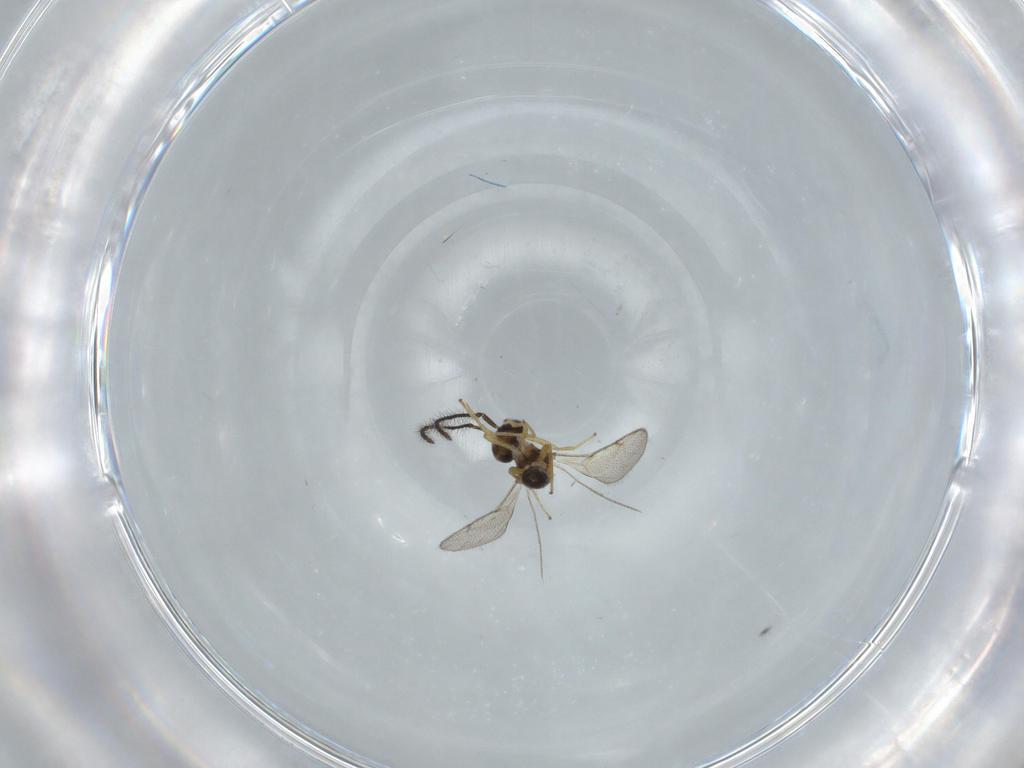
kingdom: Animalia
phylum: Arthropoda
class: Insecta
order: Hymenoptera
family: Diparidae
